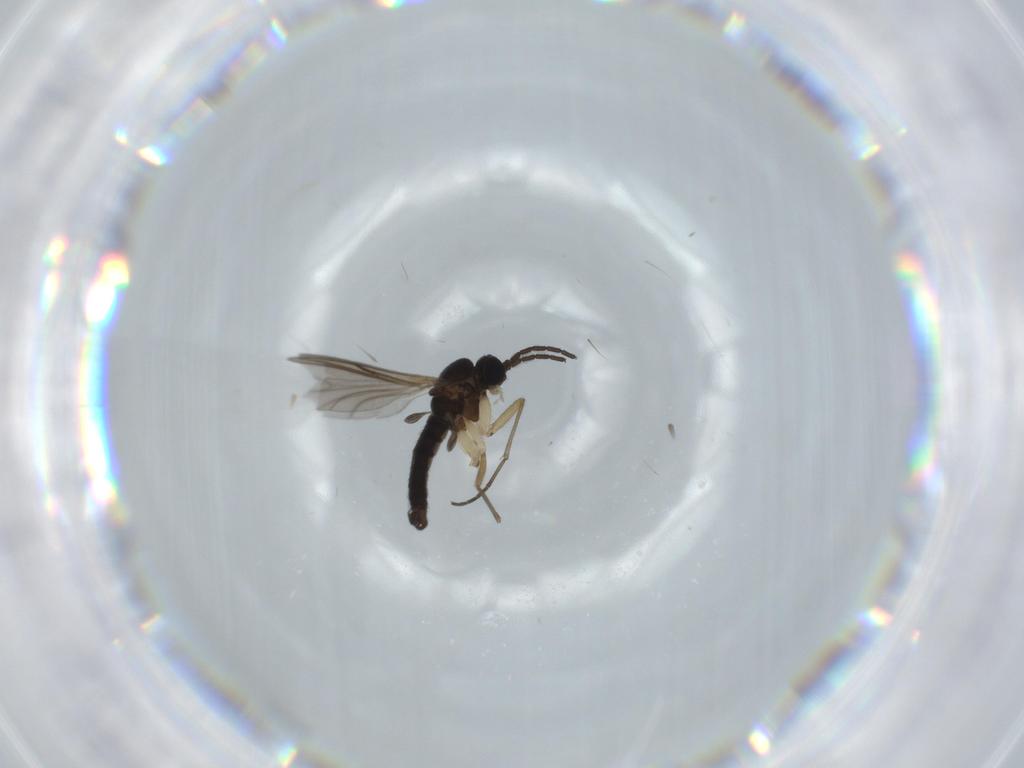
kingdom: Animalia
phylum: Arthropoda
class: Insecta
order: Diptera
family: Sciaridae
